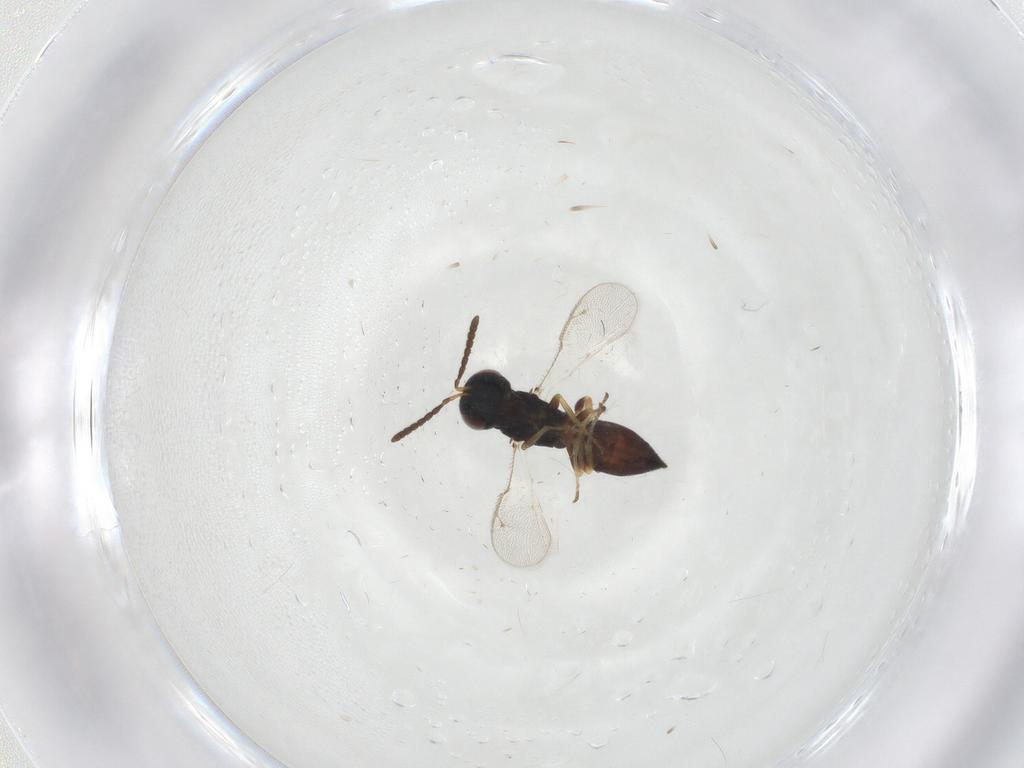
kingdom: Animalia
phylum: Arthropoda
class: Insecta
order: Hymenoptera
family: Pteromalidae
